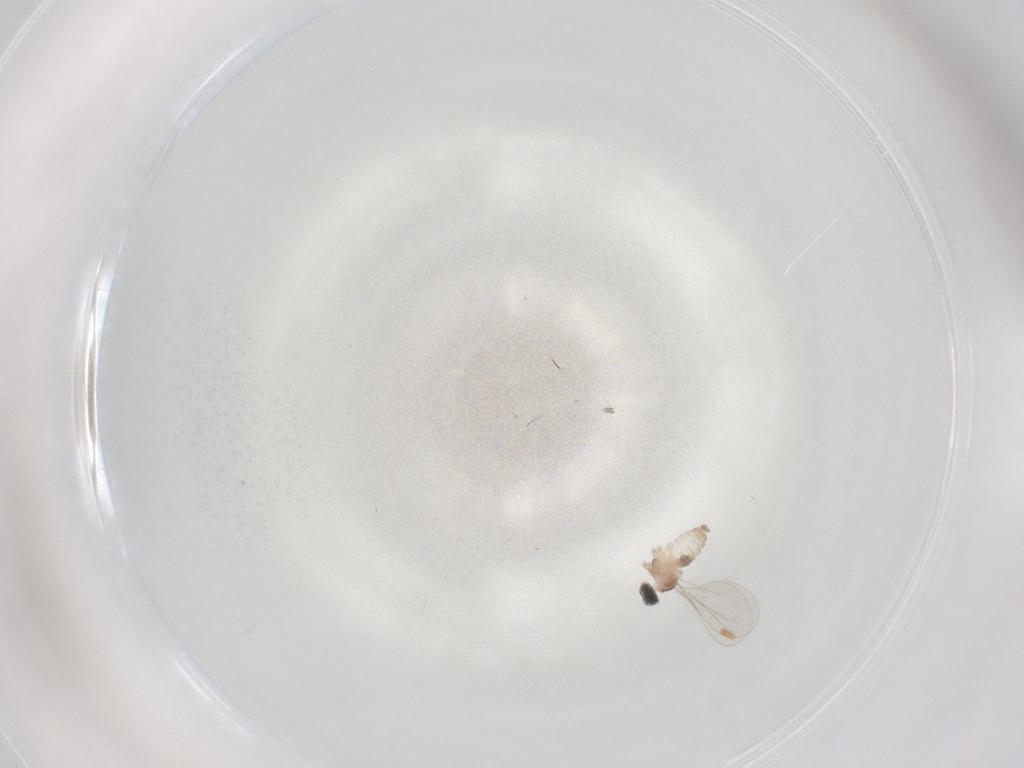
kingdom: Animalia
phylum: Arthropoda
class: Insecta
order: Diptera
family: Cecidomyiidae
